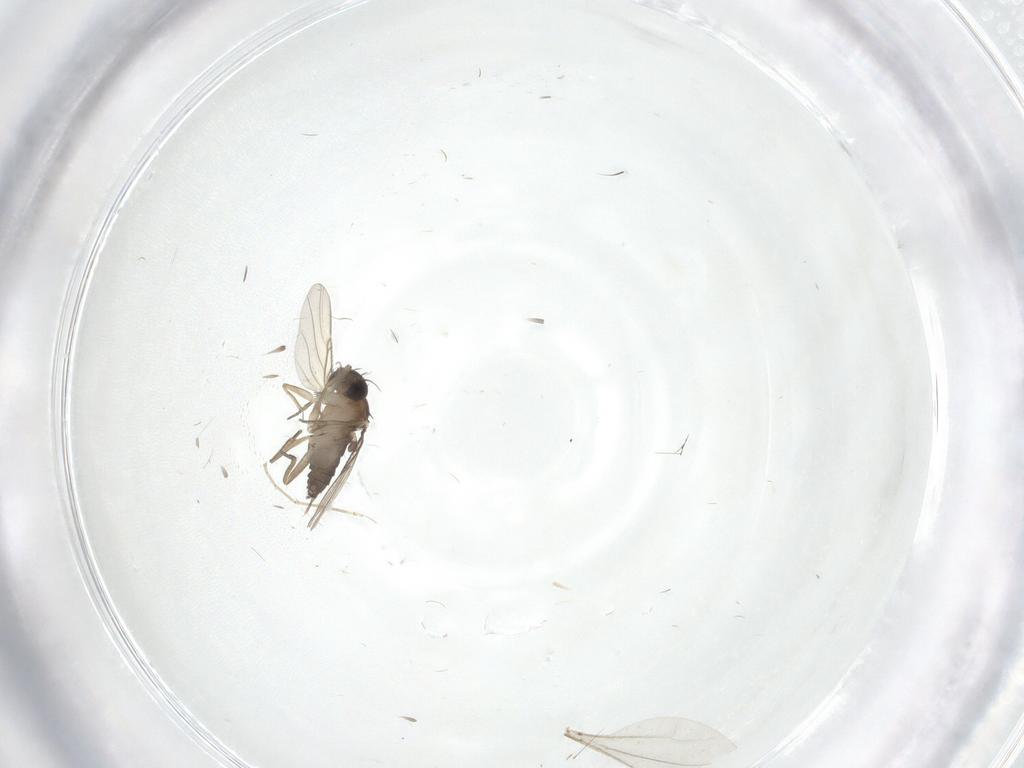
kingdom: Animalia
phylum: Arthropoda
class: Insecta
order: Diptera
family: Phoridae
